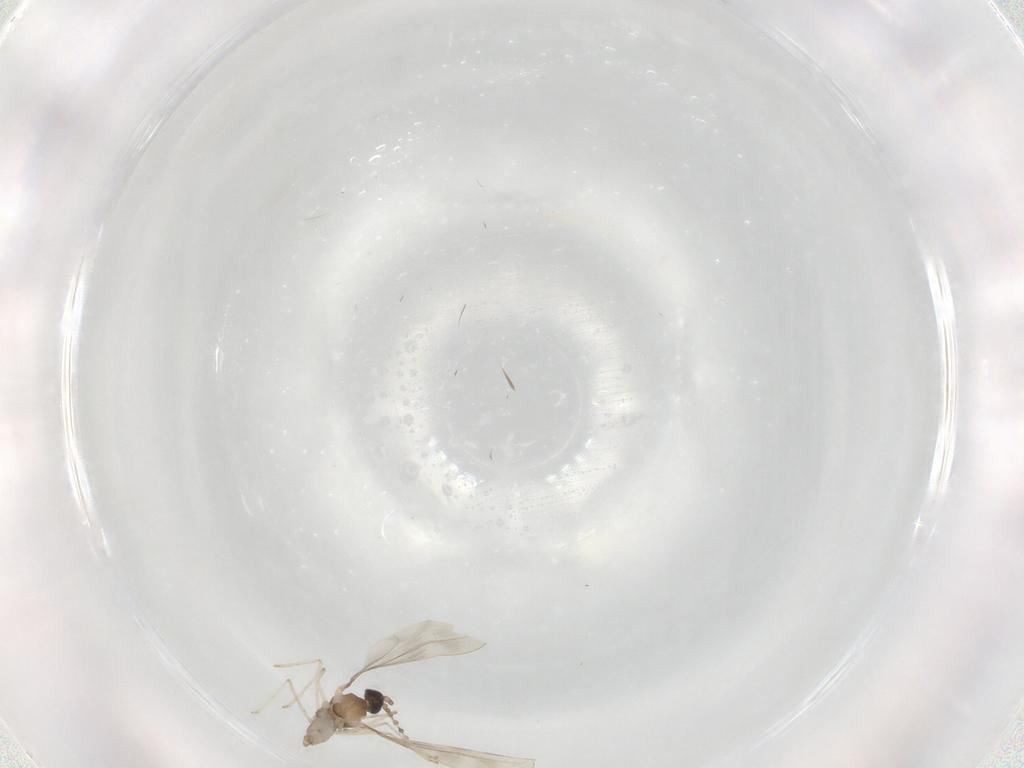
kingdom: Animalia
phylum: Arthropoda
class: Insecta
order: Diptera
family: Cecidomyiidae
